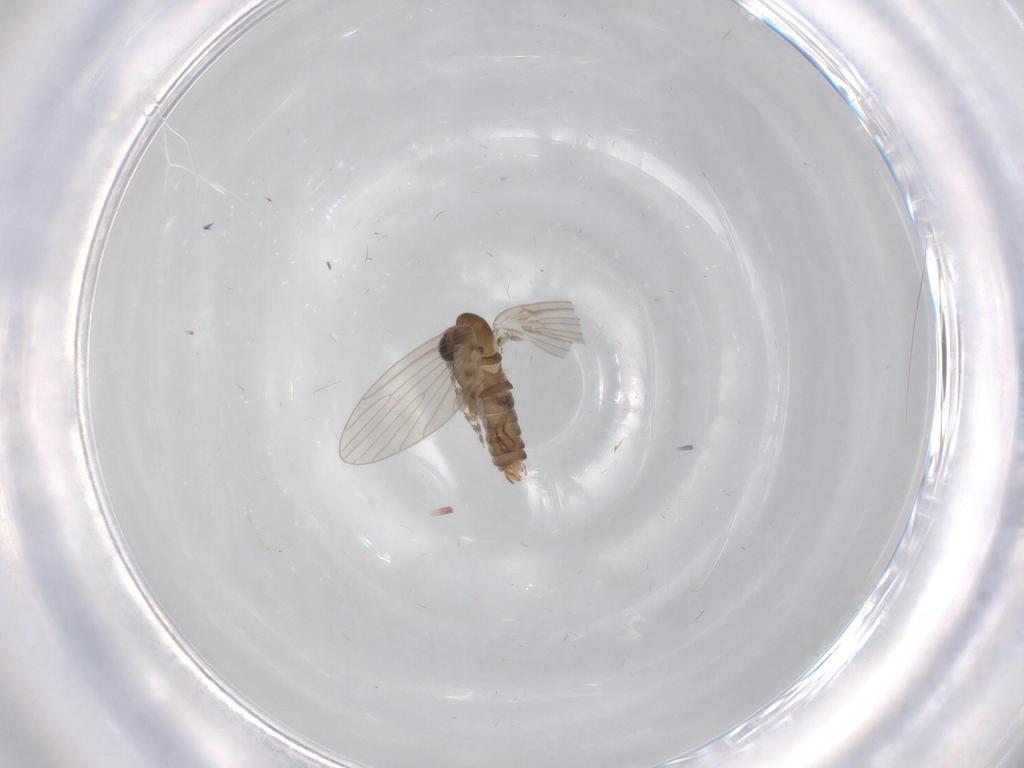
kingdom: Animalia
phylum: Arthropoda
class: Insecta
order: Diptera
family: Psychodidae
